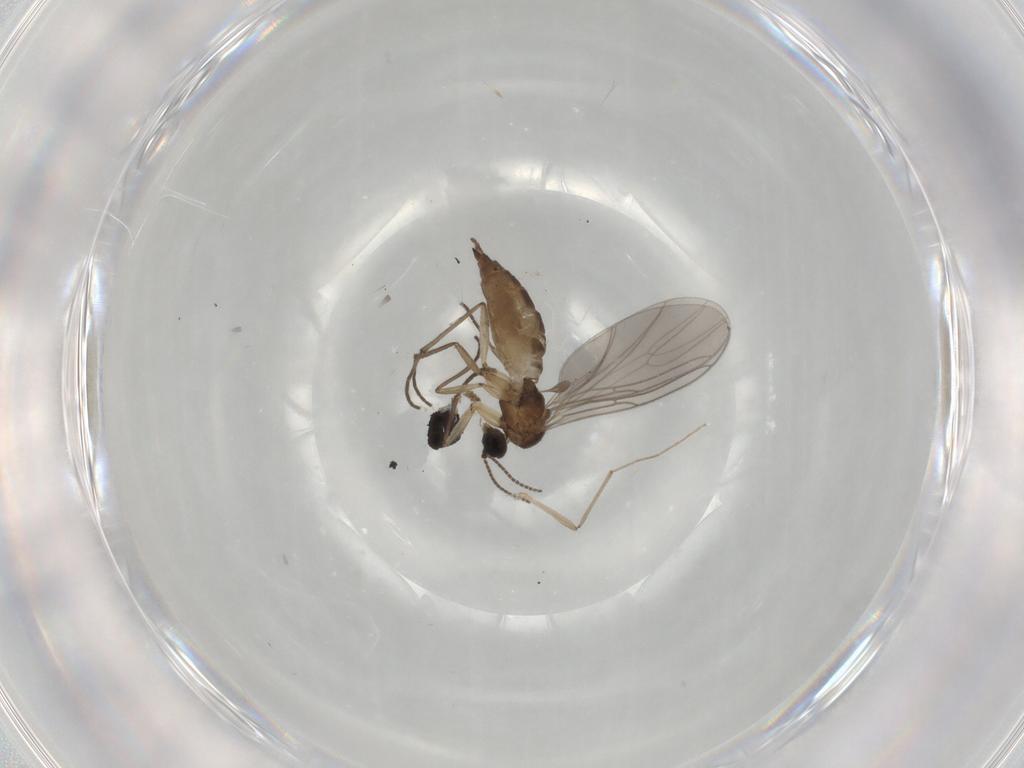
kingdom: Animalia
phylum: Arthropoda
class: Insecta
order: Diptera
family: Sciaridae
